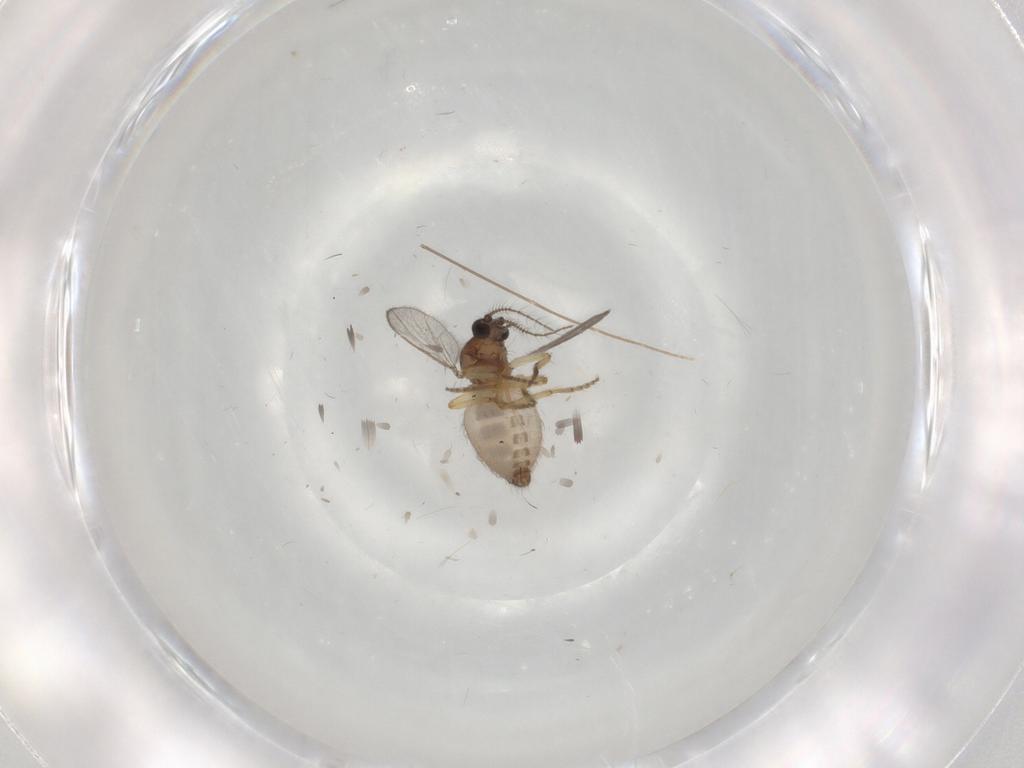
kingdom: Animalia
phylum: Arthropoda
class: Insecta
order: Diptera
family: Ceratopogonidae
